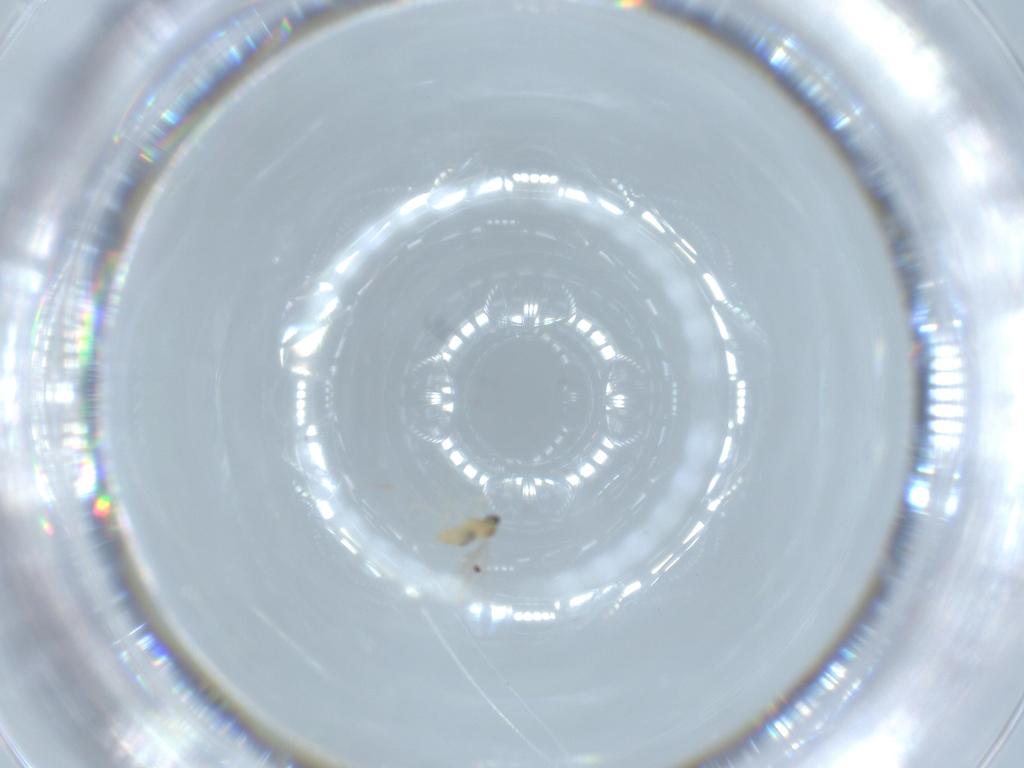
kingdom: Animalia
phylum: Arthropoda
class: Insecta
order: Diptera
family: Cecidomyiidae
